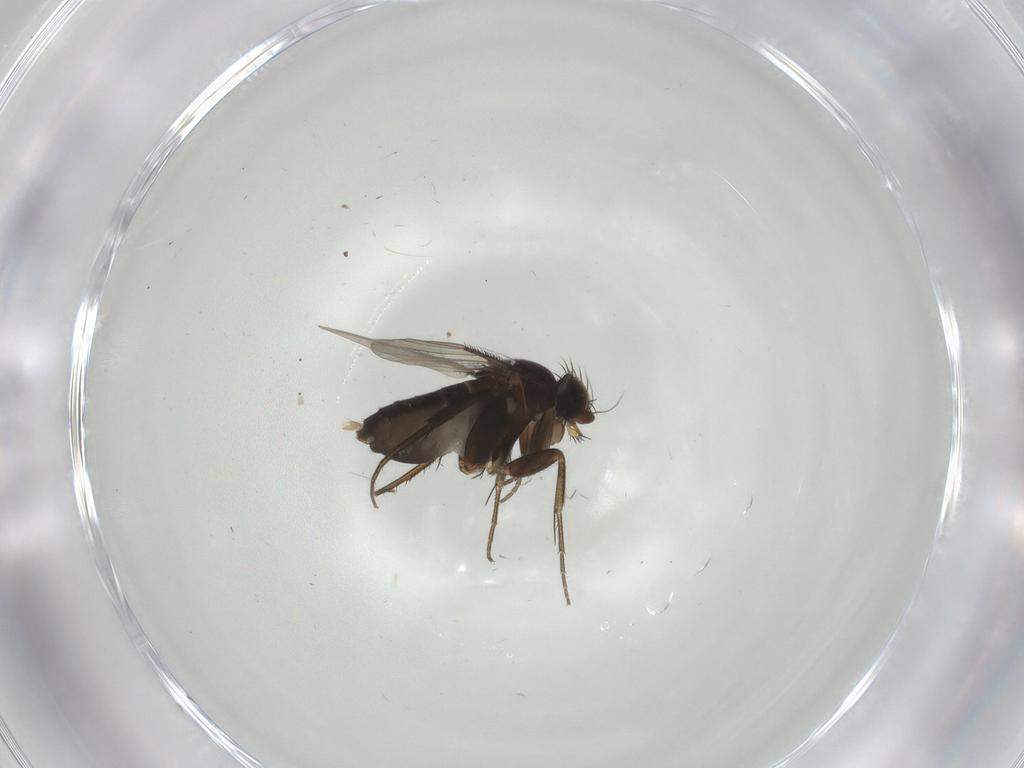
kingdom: Animalia
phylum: Arthropoda
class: Insecta
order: Diptera
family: Phoridae
